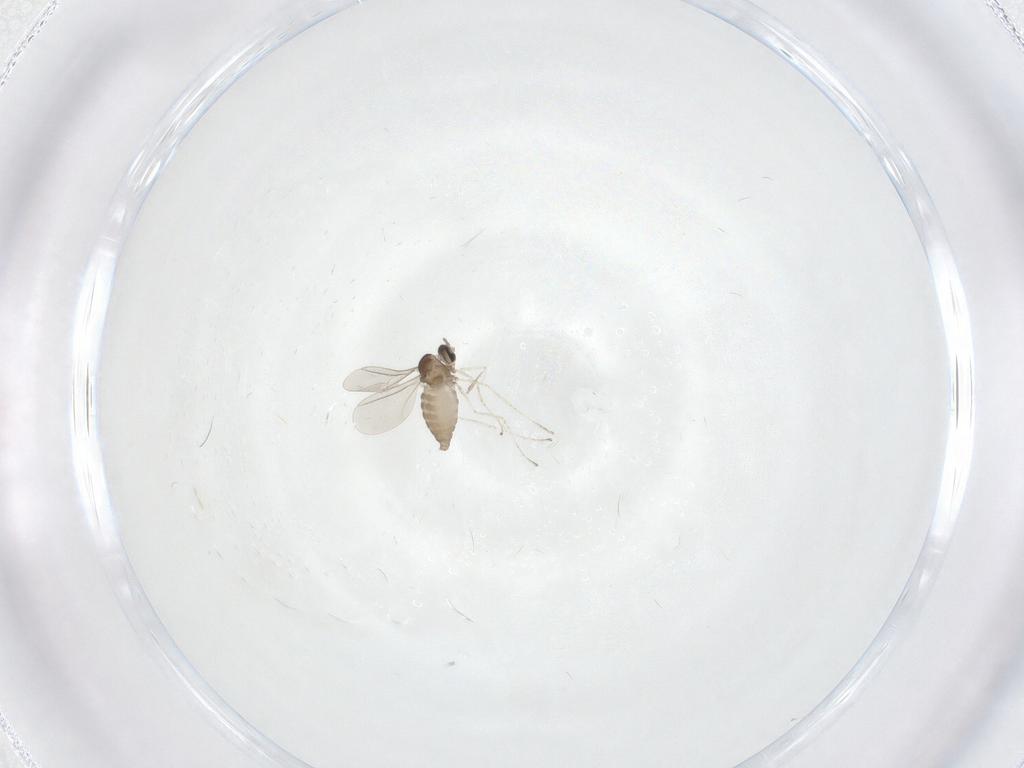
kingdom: Animalia
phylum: Arthropoda
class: Insecta
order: Diptera
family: Cecidomyiidae
